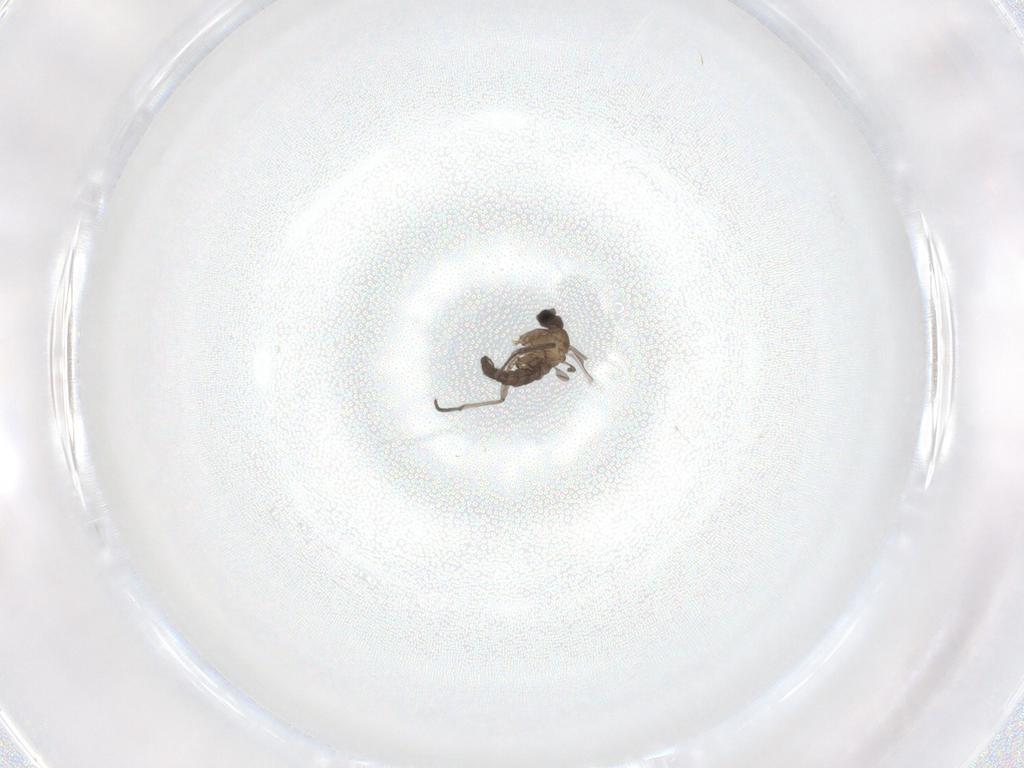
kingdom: Animalia
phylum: Arthropoda
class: Insecta
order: Diptera
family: Sciaridae
